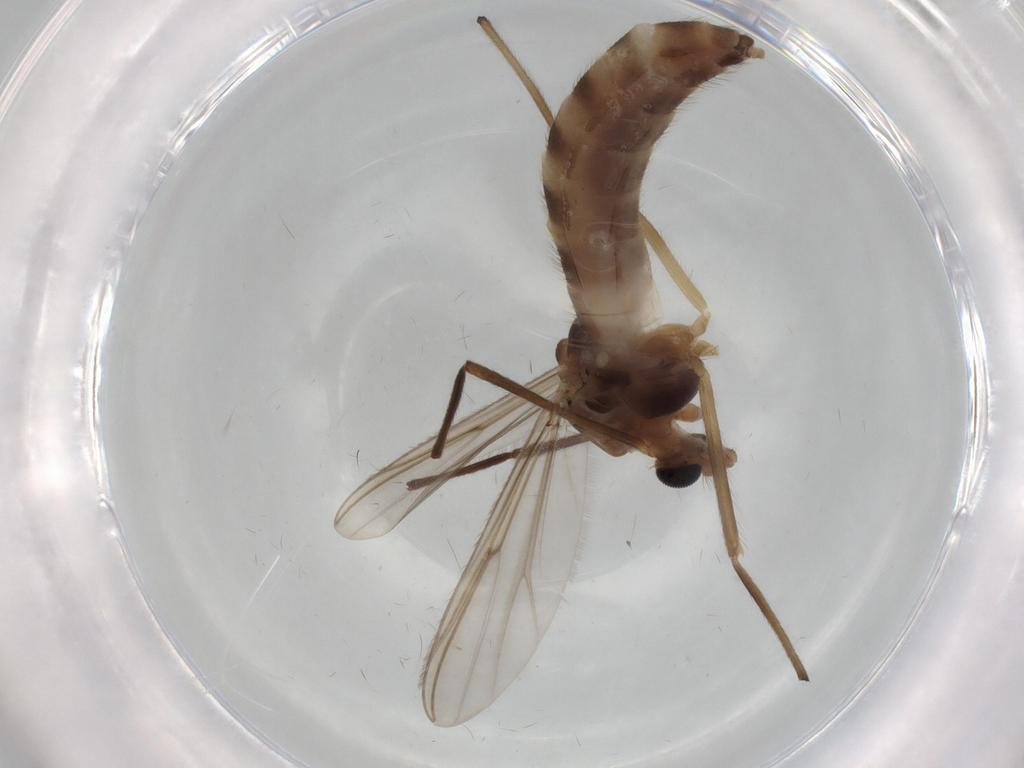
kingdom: Animalia
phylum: Arthropoda
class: Insecta
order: Diptera
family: Chironomidae
